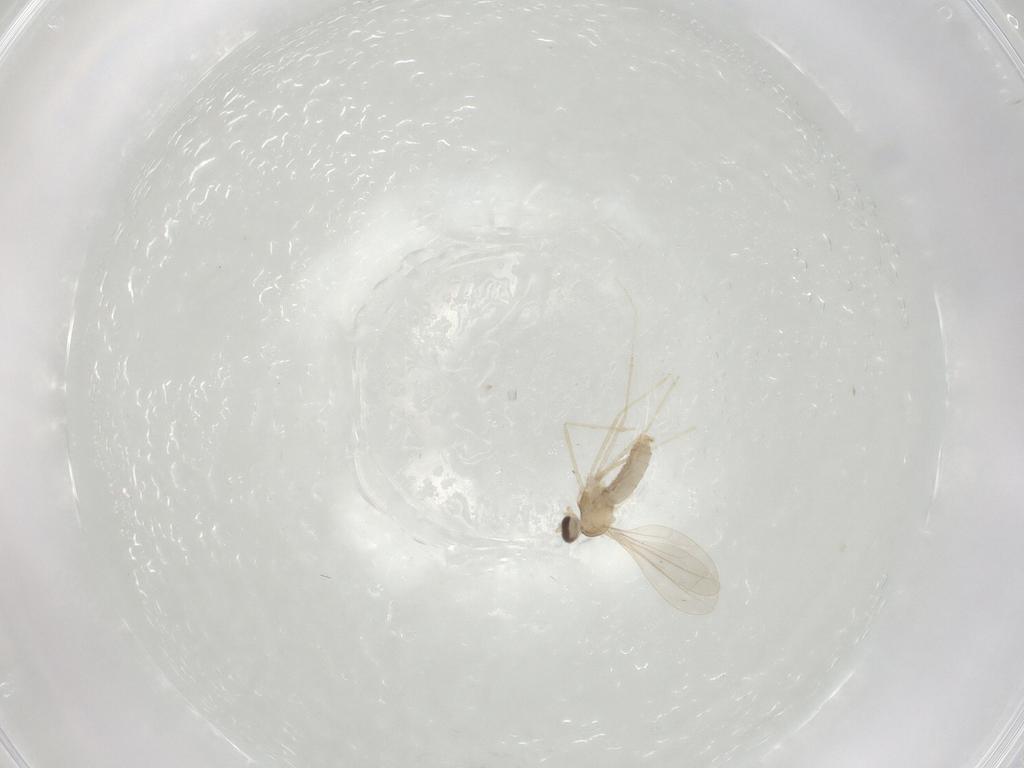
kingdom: Animalia
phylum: Arthropoda
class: Insecta
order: Diptera
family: Cecidomyiidae
